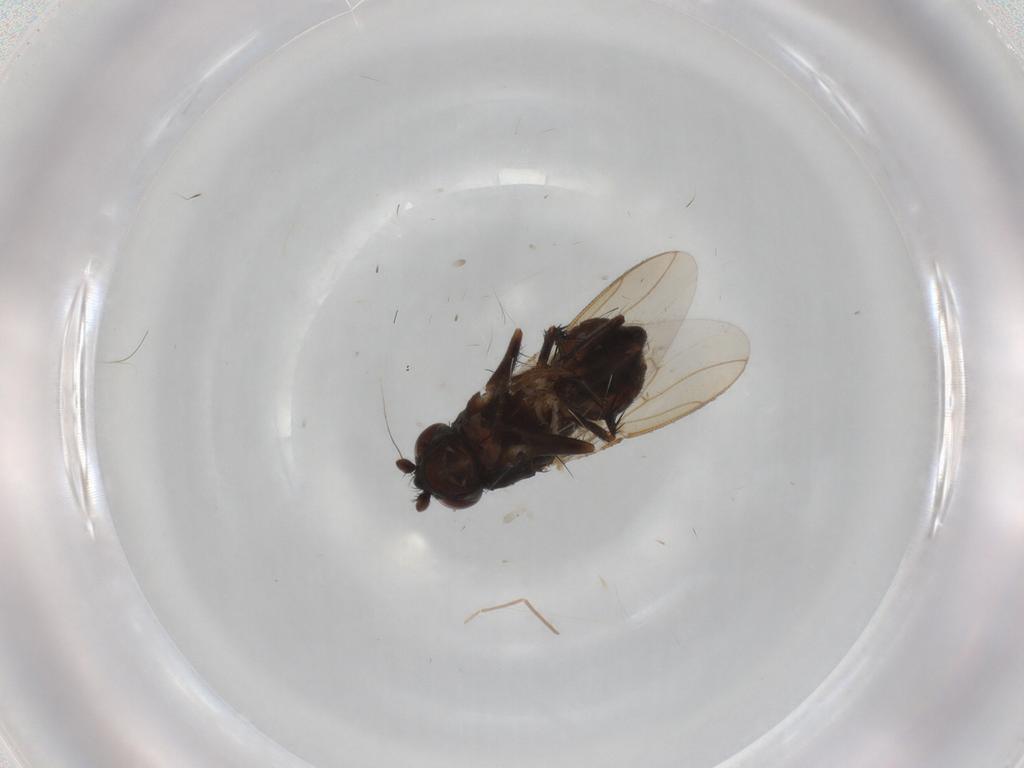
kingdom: Animalia
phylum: Arthropoda
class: Insecta
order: Diptera
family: Sphaeroceridae
